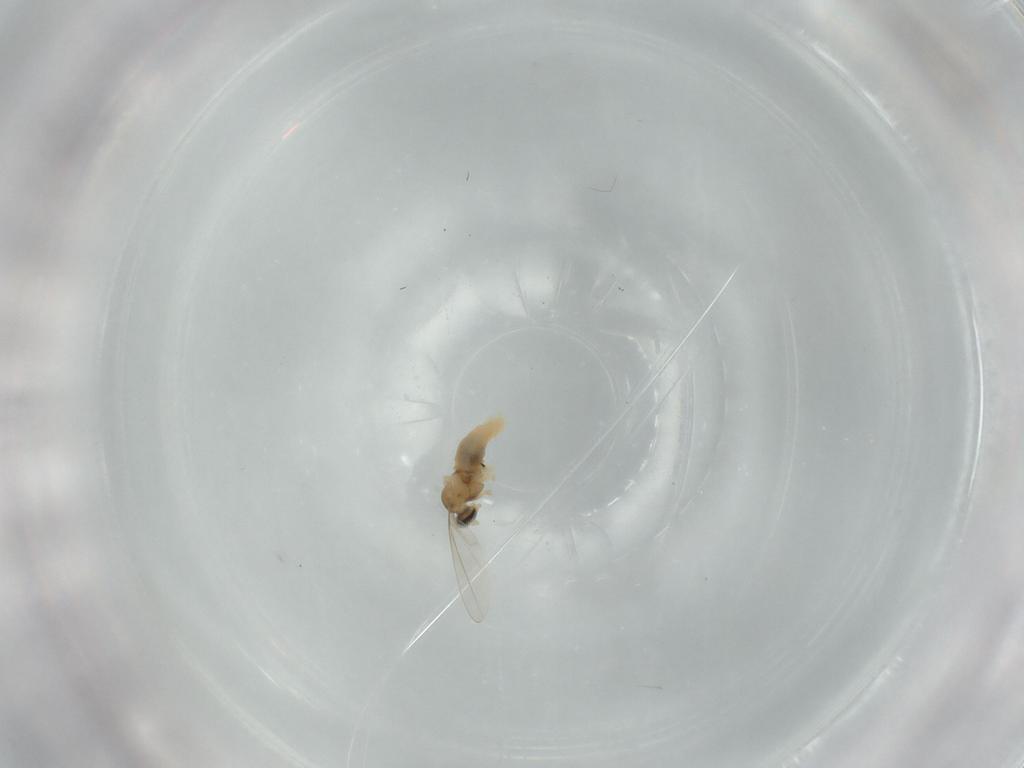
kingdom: Animalia
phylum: Arthropoda
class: Insecta
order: Diptera
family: Cecidomyiidae
